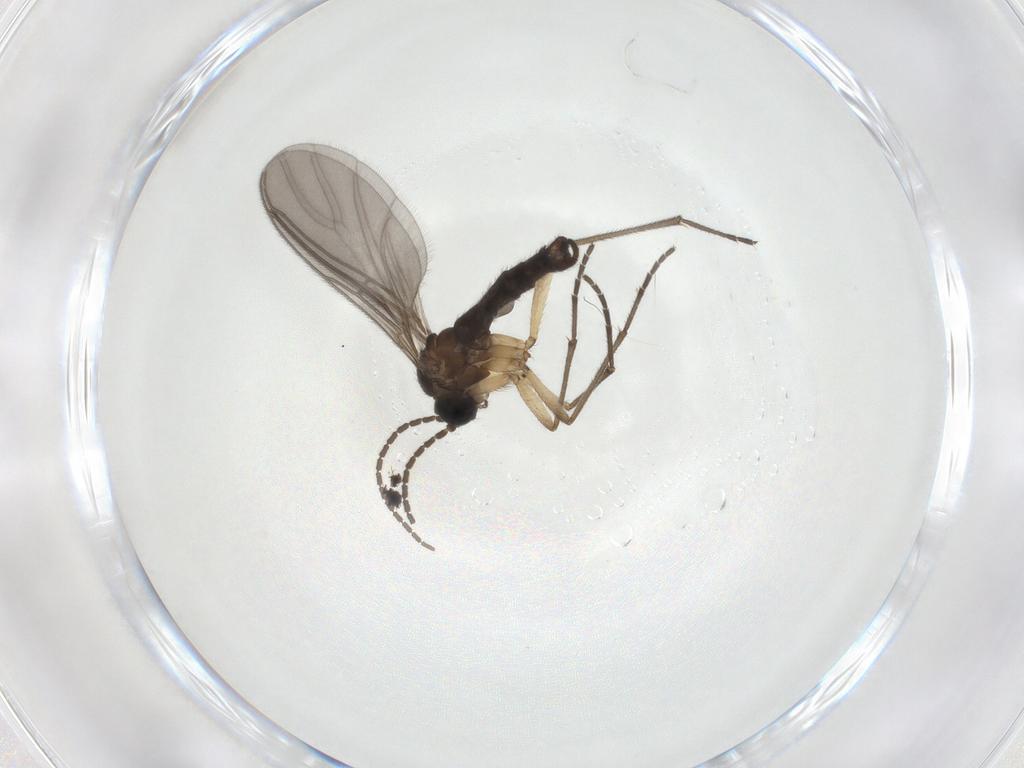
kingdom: Animalia
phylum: Arthropoda
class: Insecta
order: Diptera
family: Sciaridae
